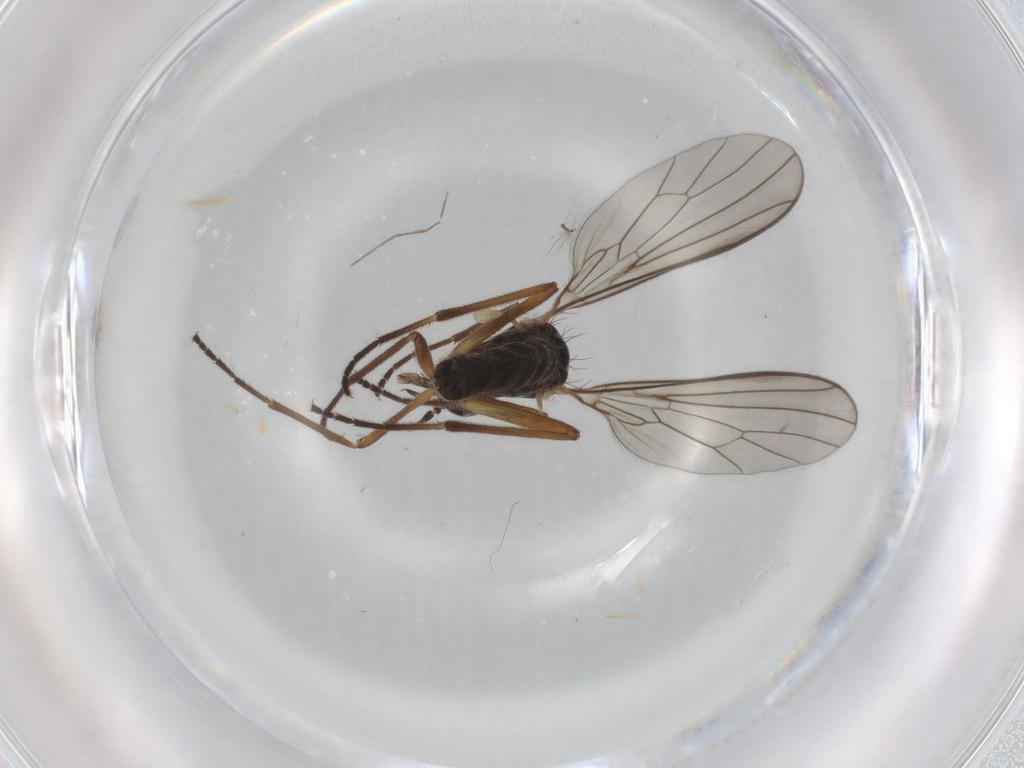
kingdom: Animalia
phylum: Arthropoda
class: Insecta
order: Diptera
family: Empididae
